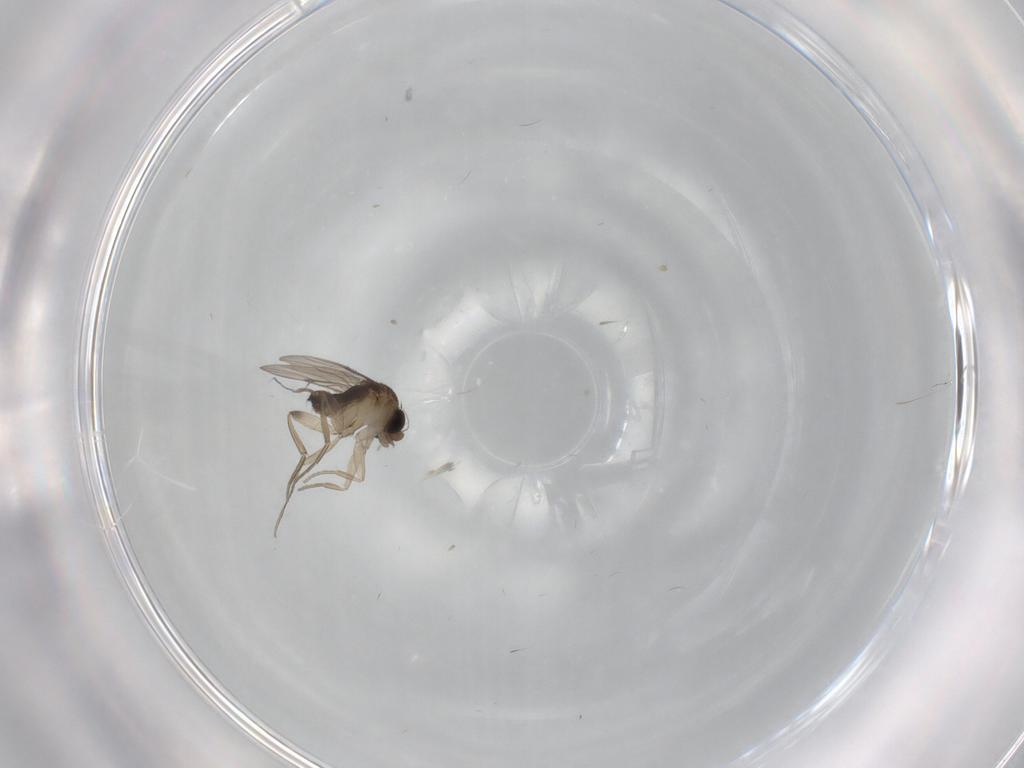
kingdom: Animalia
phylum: Arthropoda
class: Insecta
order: Diptera
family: Phoridae
